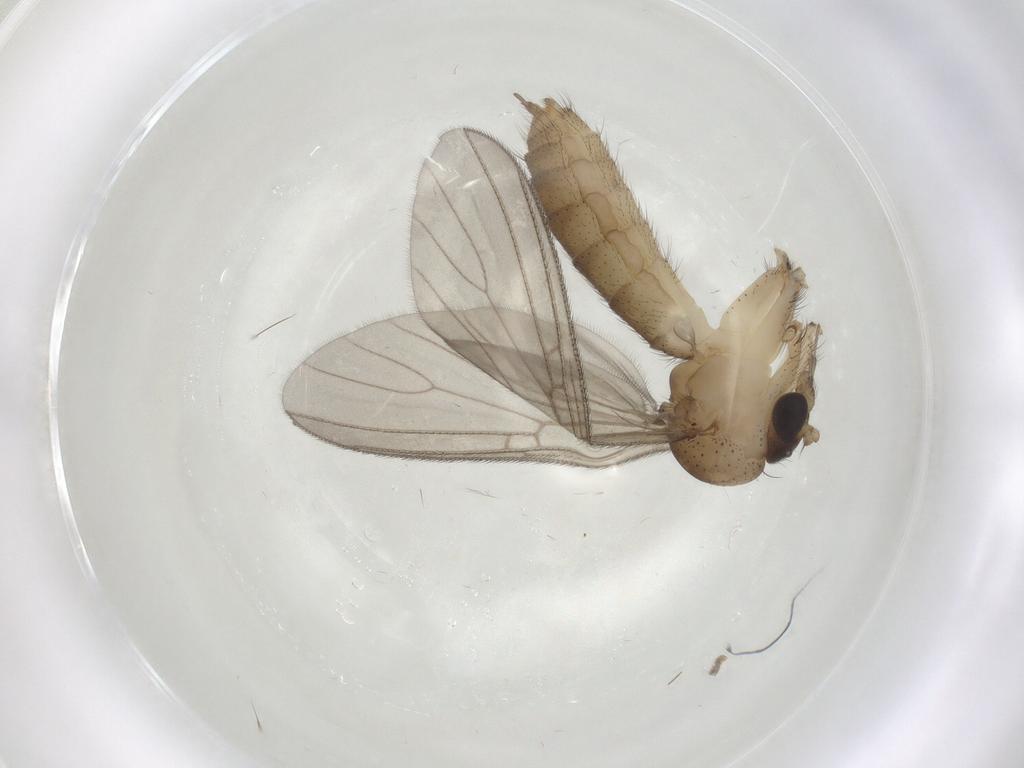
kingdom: Animalia
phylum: Arthropoda
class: Insecta
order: Diptera
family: Mycetophilidae
